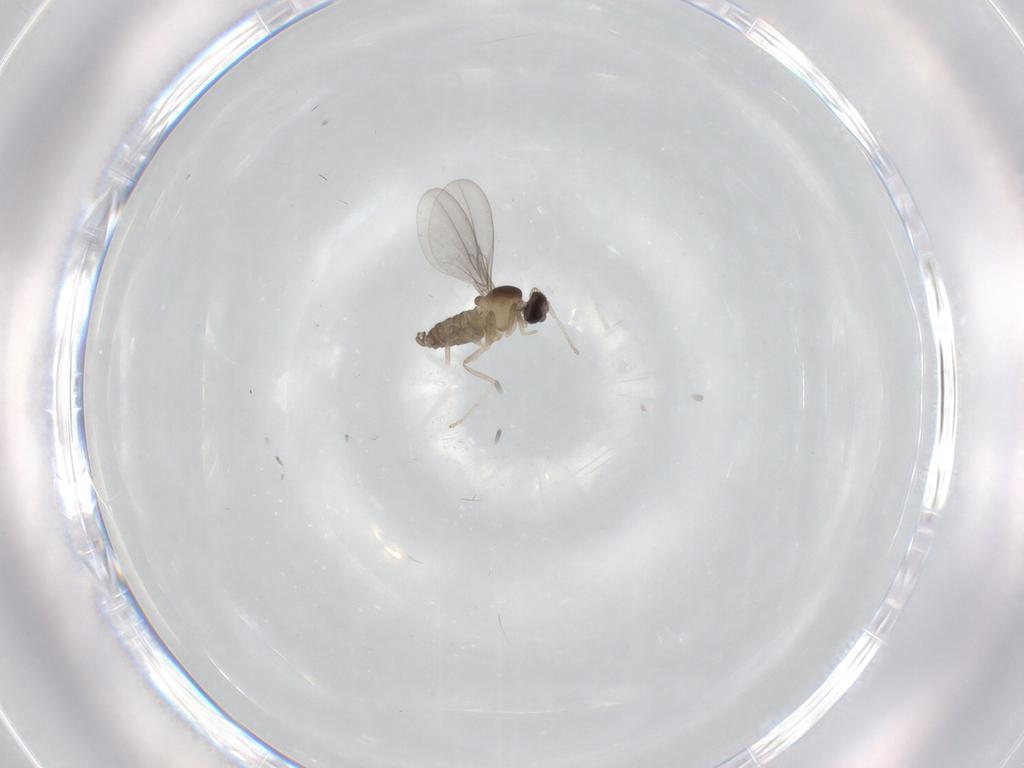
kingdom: Animalia
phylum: Arthropoda
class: Insecta
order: Diptera
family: Cecidomyiidae
